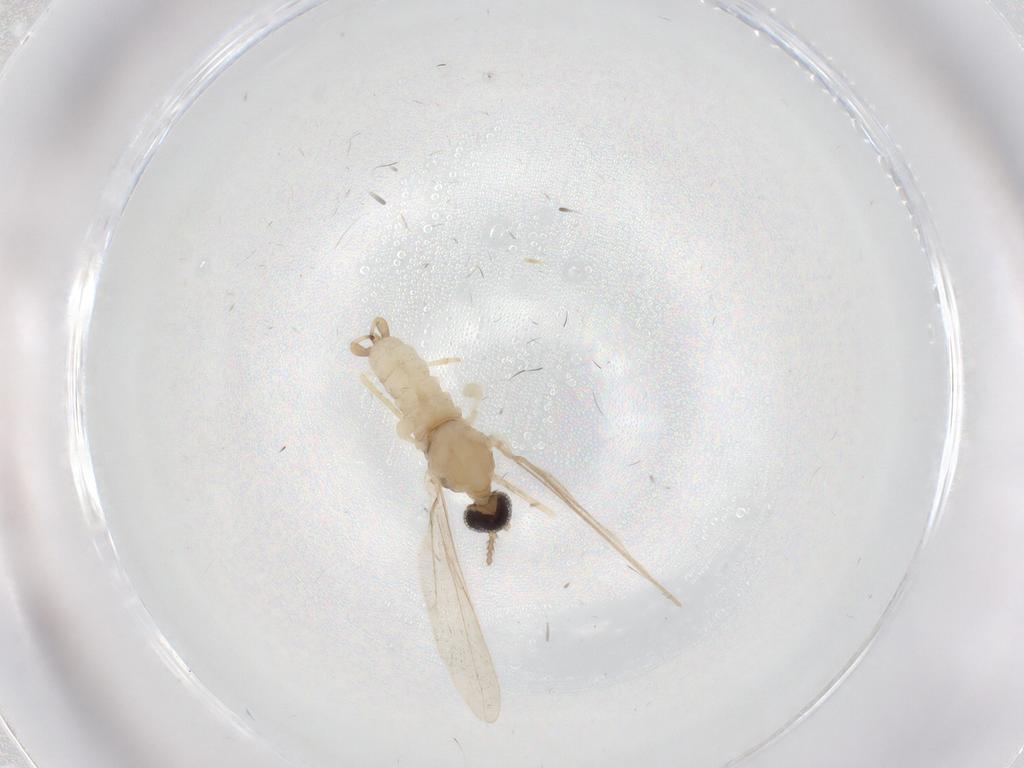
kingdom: Animalia
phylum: Arthropoda
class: Insecta
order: Diptera
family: Cecidomyiidae
